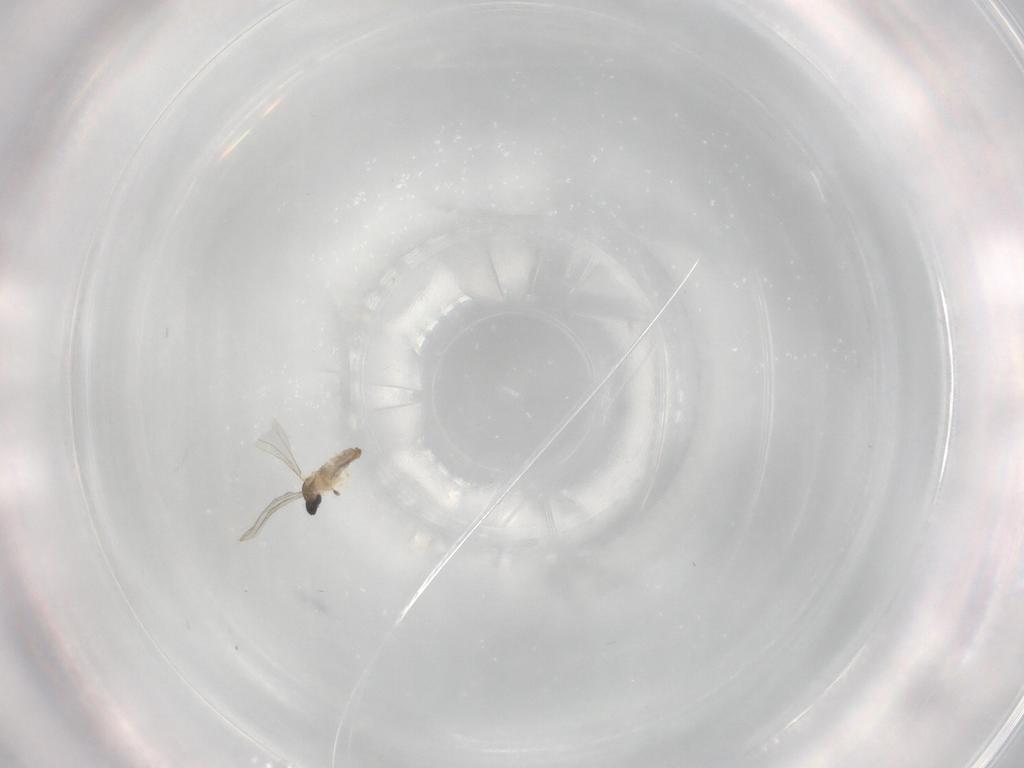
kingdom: Animalia
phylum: Arthropoda
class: Insecta
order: Diptera
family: Cecidomyiidae
